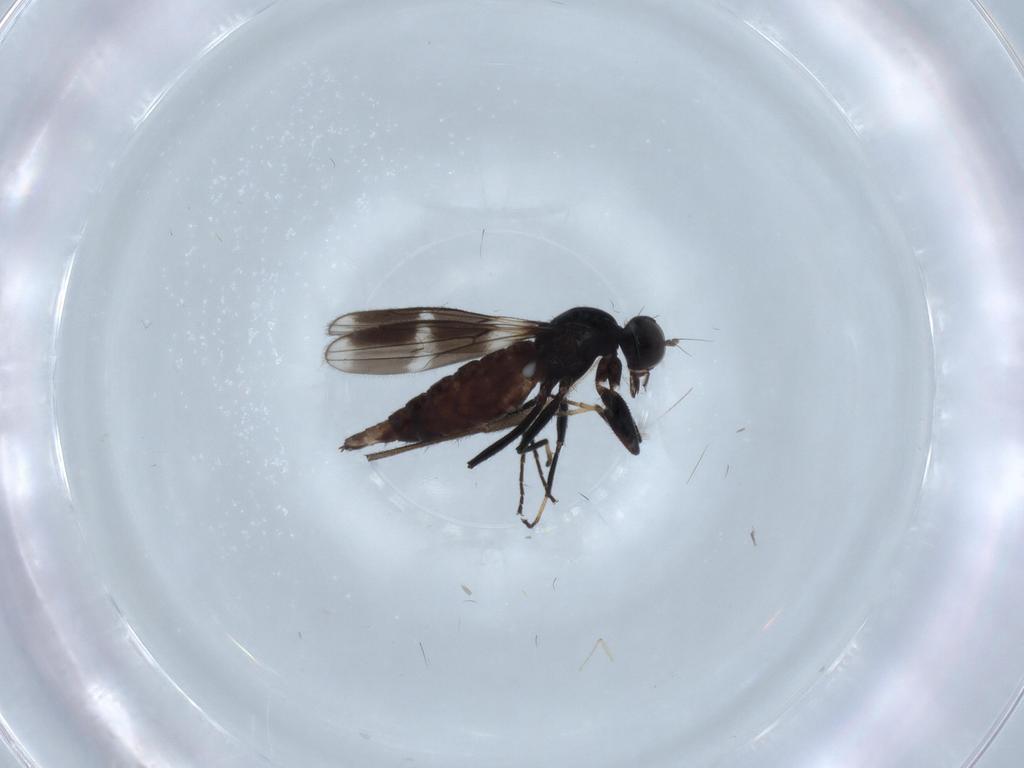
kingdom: Animalia
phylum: Arthropoda
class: Insecta
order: Diptera
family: Hybotidae
